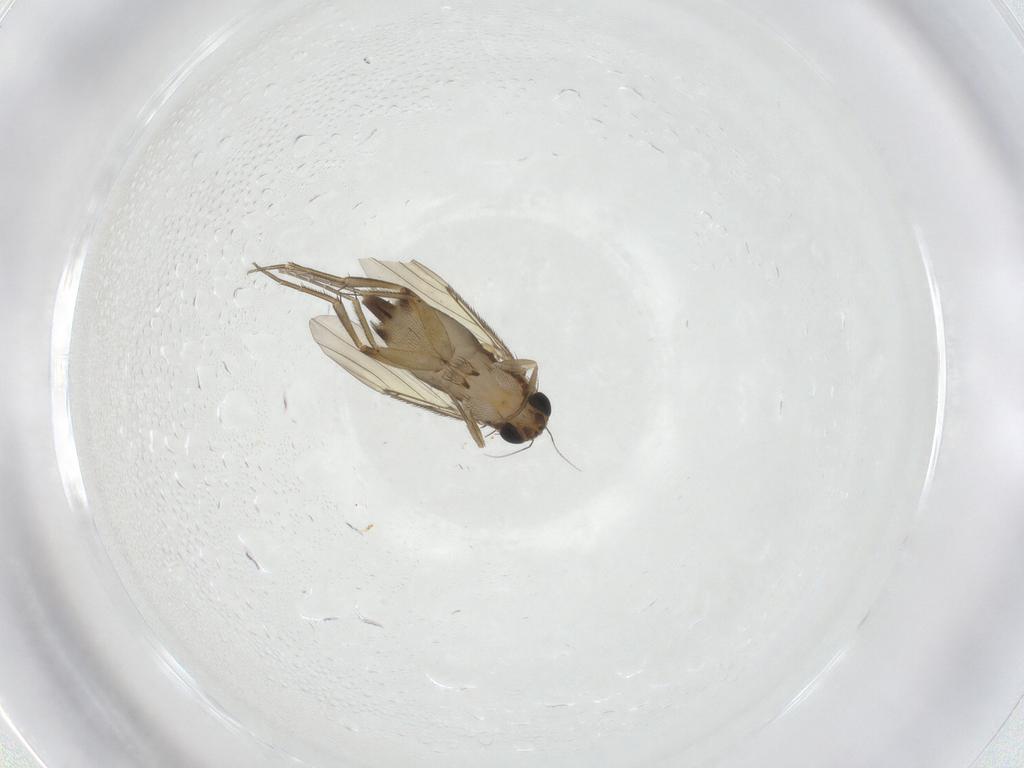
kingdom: Animalia
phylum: Arthropoda
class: Insecta
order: Diptera
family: Phoridae
